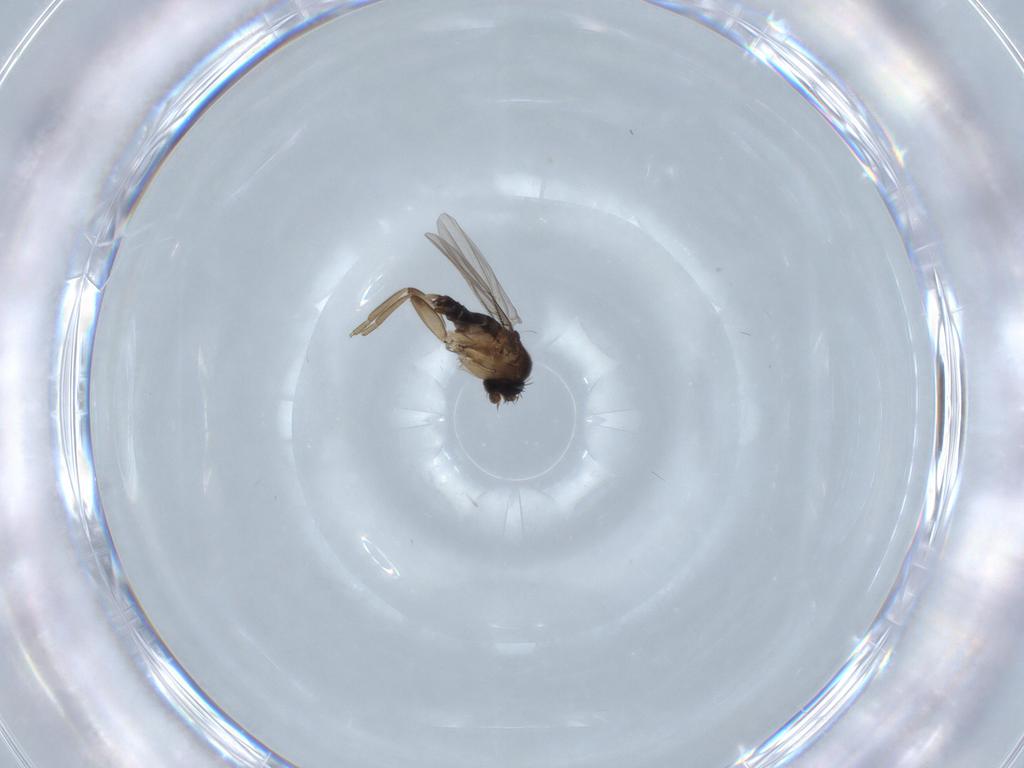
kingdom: Animalia
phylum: Arthropoda
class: Insecta
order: Diptera
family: Phoridae
